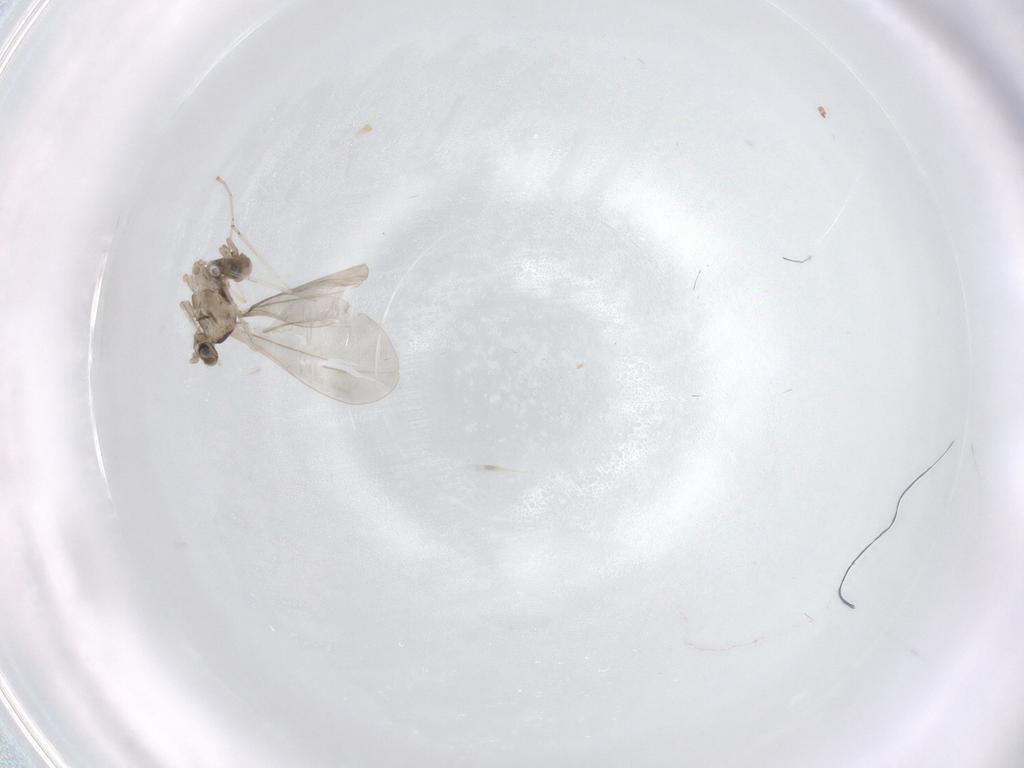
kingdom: Animalia
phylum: Arthropoda
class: Insecta
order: Diptera
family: Cecidomyiidae
